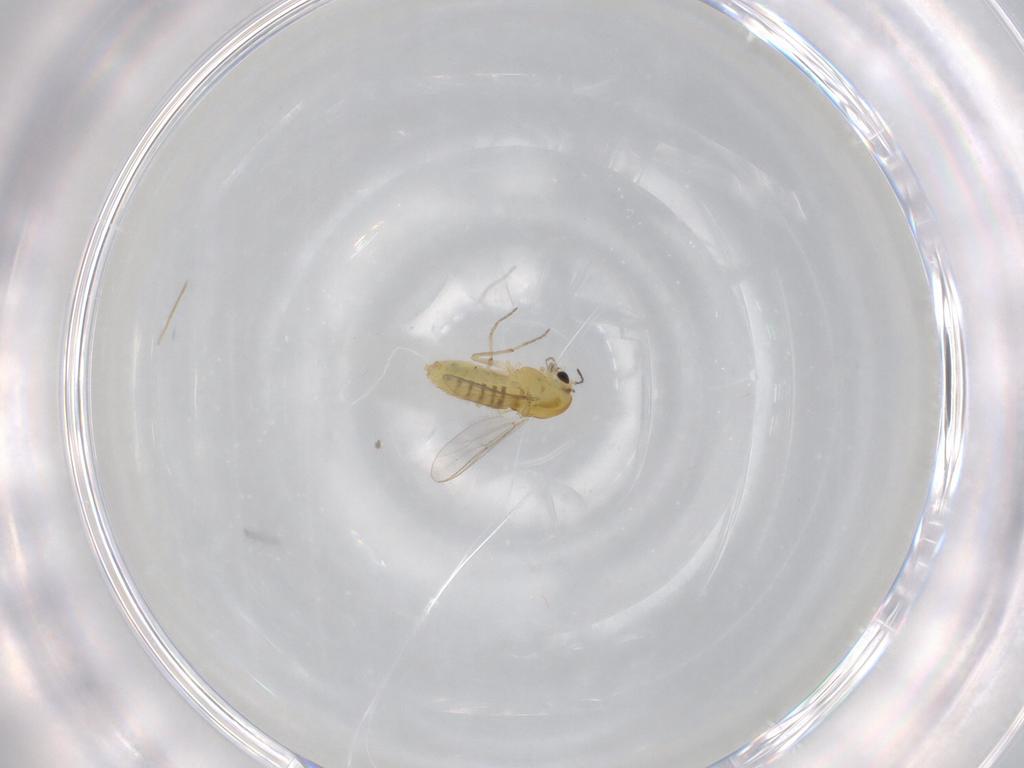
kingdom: Animalia
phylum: Arthropoda
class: Insecta
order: Diptera
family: Chironomidae
